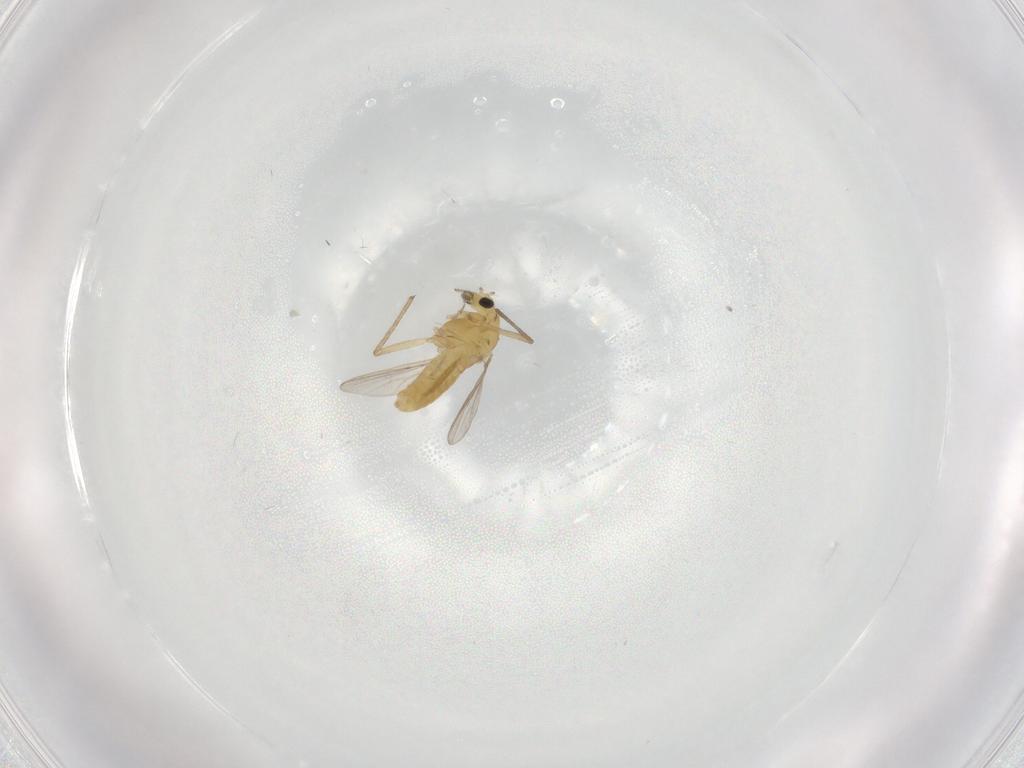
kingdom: Animalia
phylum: Arthropoda
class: Insecta
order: Diptera
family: Chironomidae
